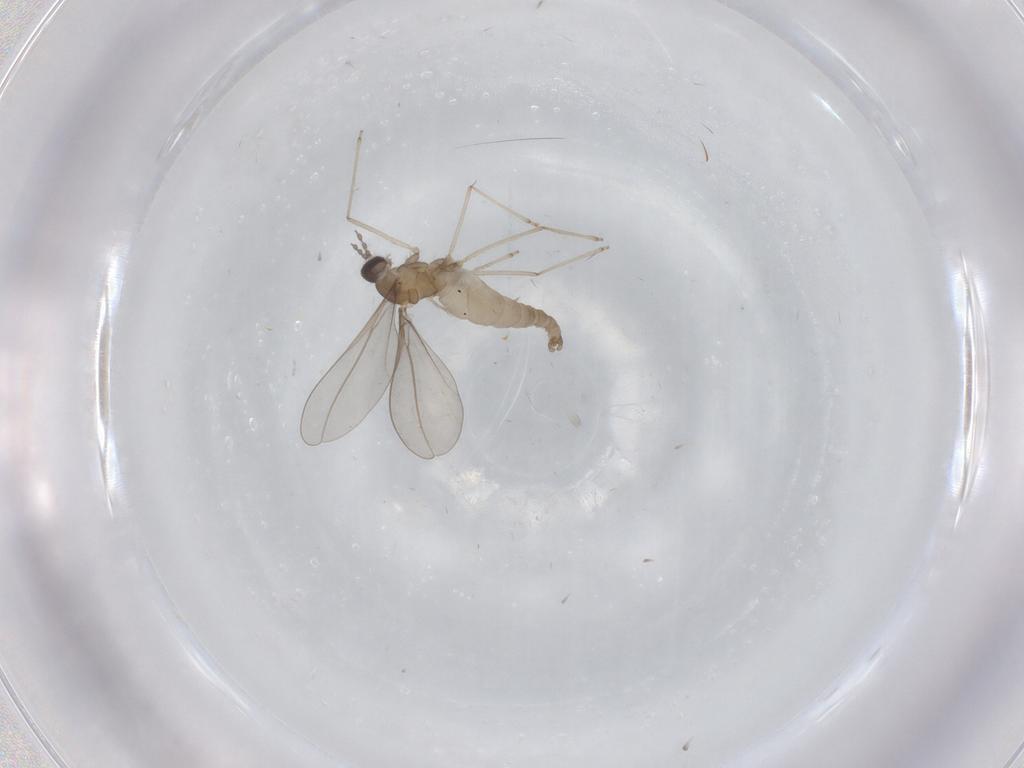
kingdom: Animalia
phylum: Arthropoda
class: Insecta
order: Diptera
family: Cecidomyiidae
